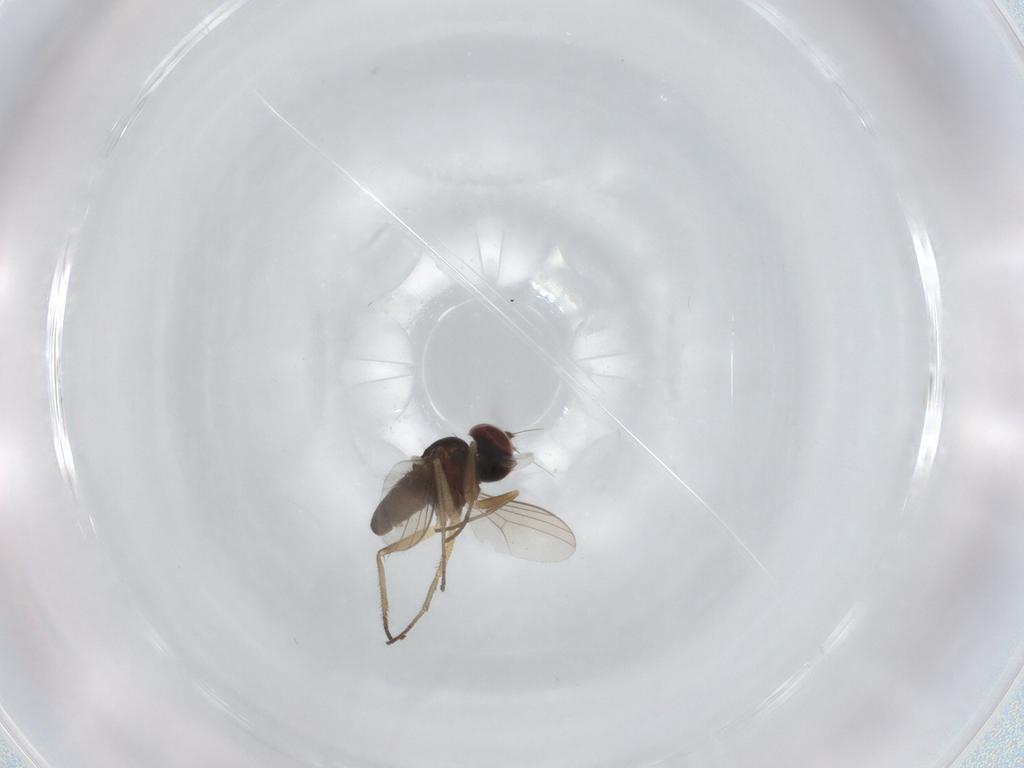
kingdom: Animalia
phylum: Arthropoda
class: Insecta
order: Diptera
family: Dolichopodidae
